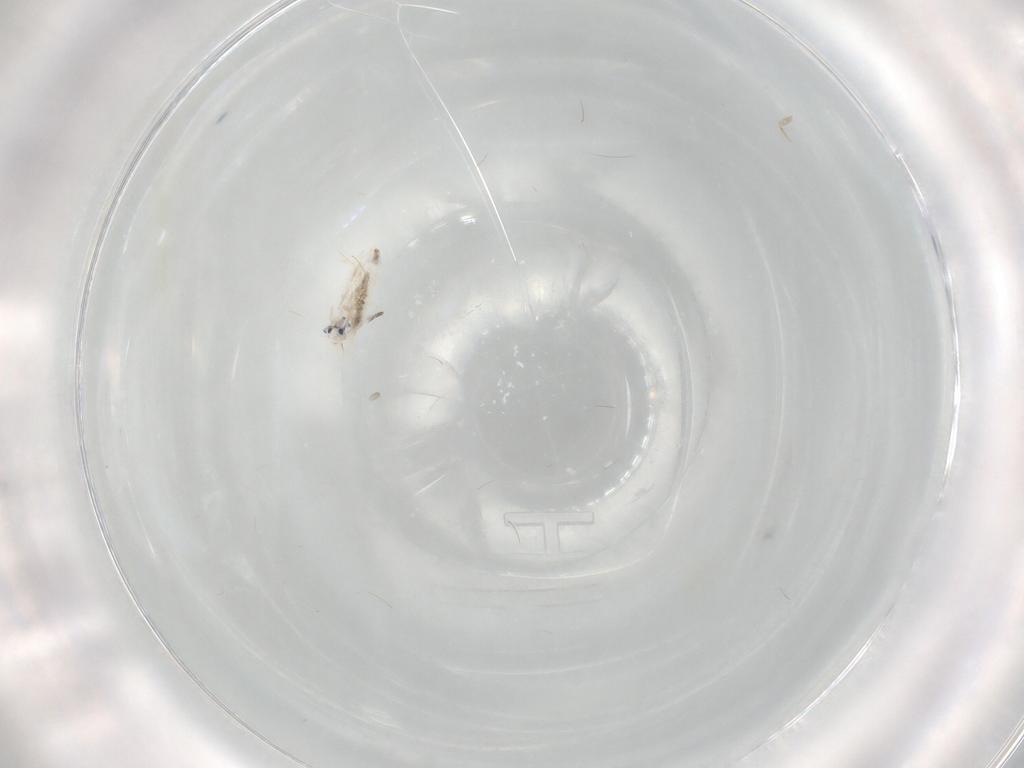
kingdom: Animalia
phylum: Arthropoda
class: Collembola
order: Entomobryomorpha
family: Entomobryidae
